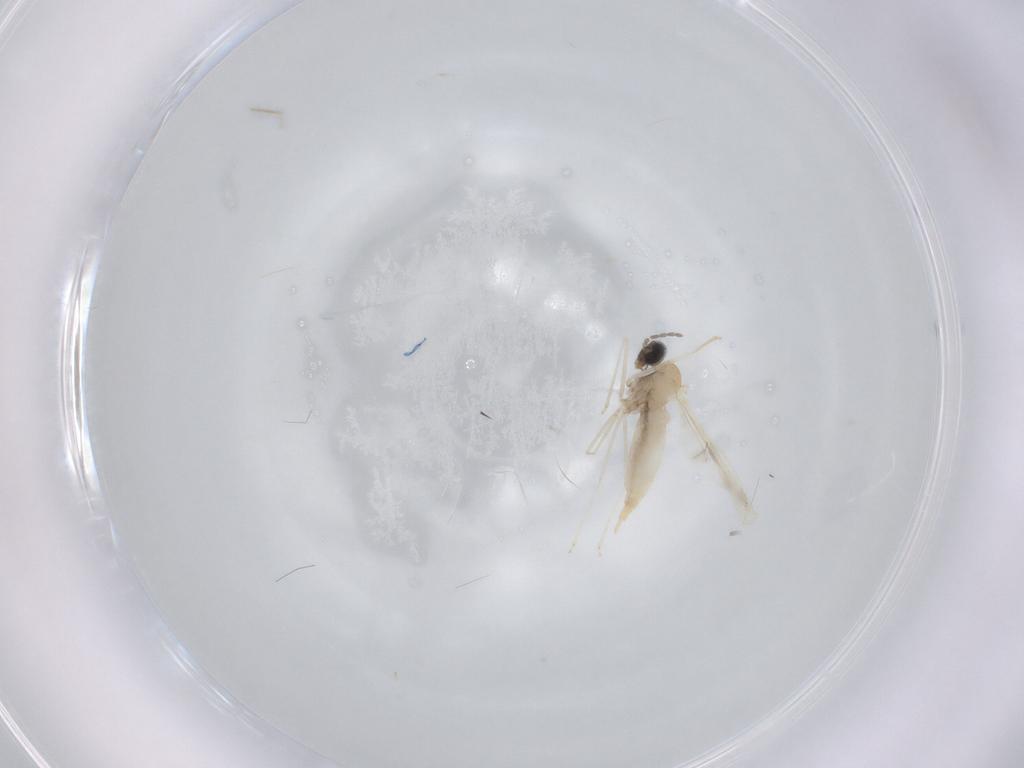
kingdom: Animalia
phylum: Arthropoda
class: Insecta
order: Diptera
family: Cecidomyiidae
